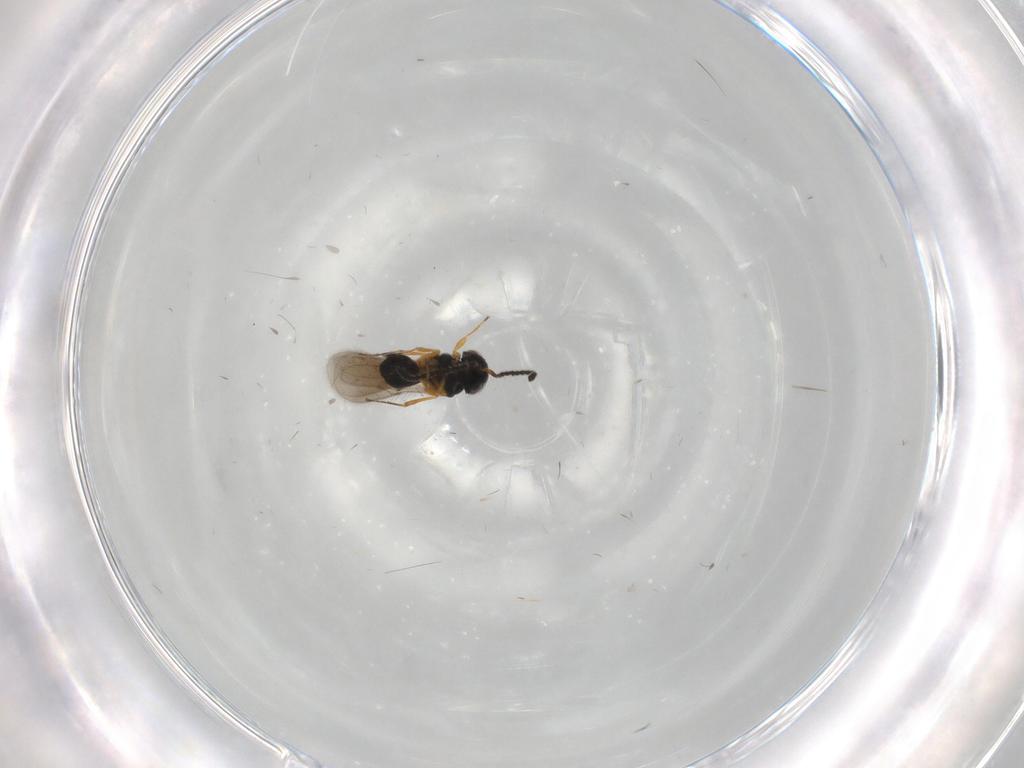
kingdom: Animalia
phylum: Arthropoda
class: Insecta
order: Hymenoptera
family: Scelionidae
